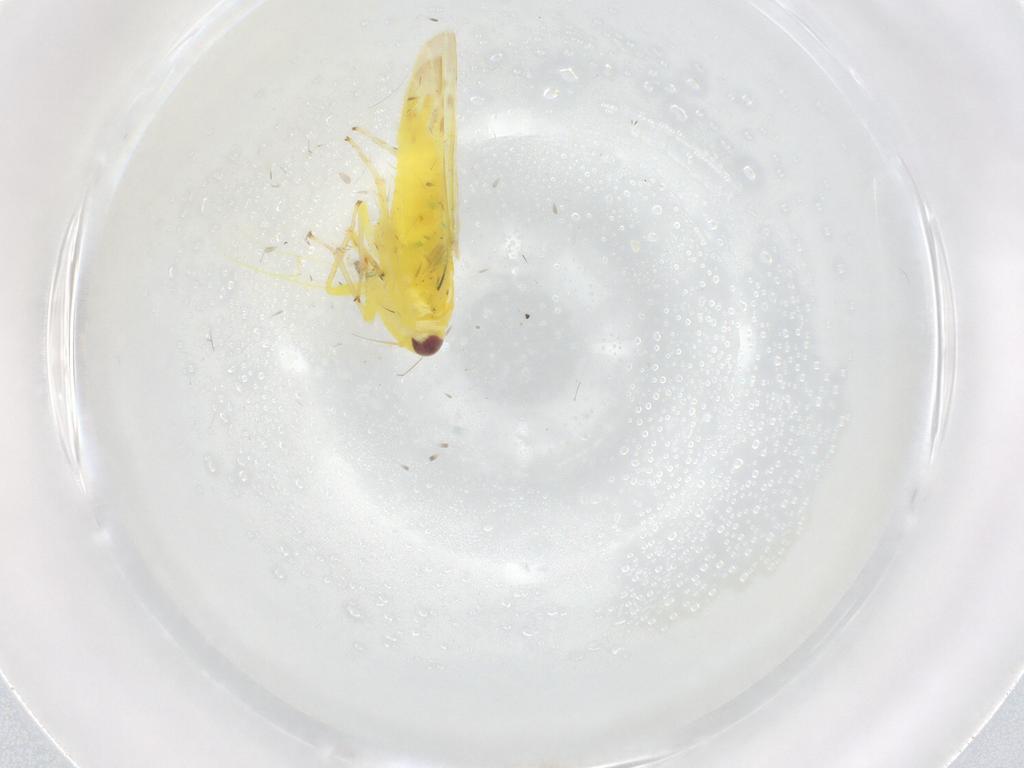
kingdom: Animalia
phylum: Arthropoda
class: Insecta
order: Hemiptera
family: Cicadellidae
